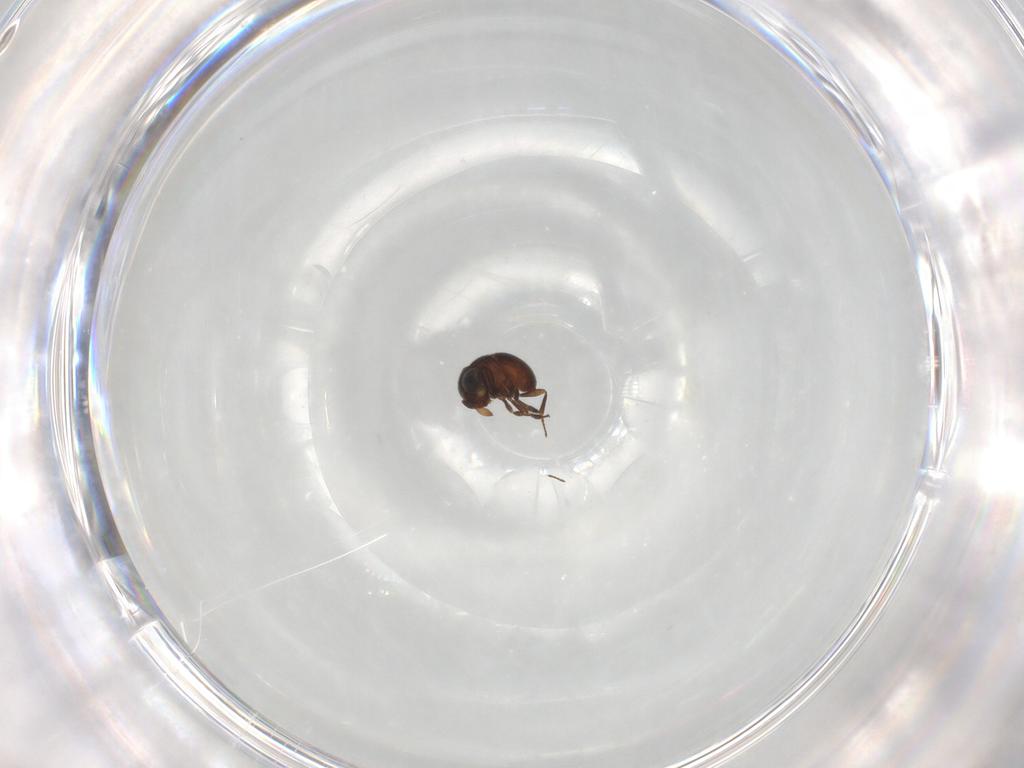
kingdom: Animalia
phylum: Arthropoda
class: Insecta
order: Hymenoptera
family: Scelionidae
